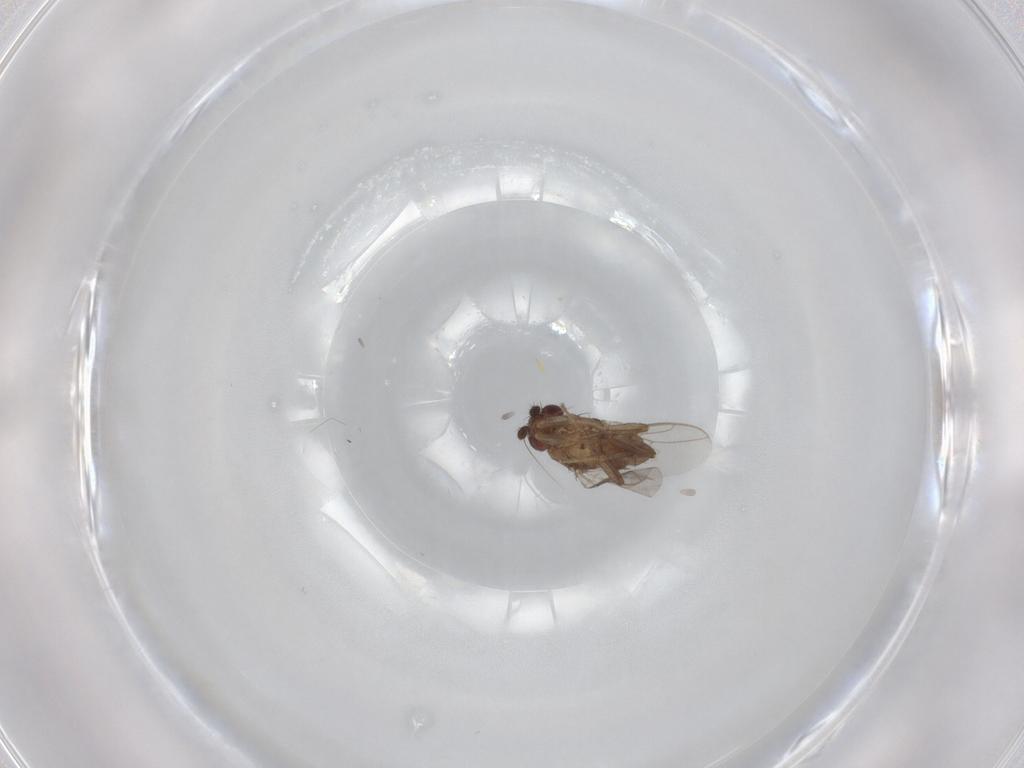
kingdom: Animalia
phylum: Arthropoda
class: Insecta
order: Diptera
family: Sphaeroceridae
